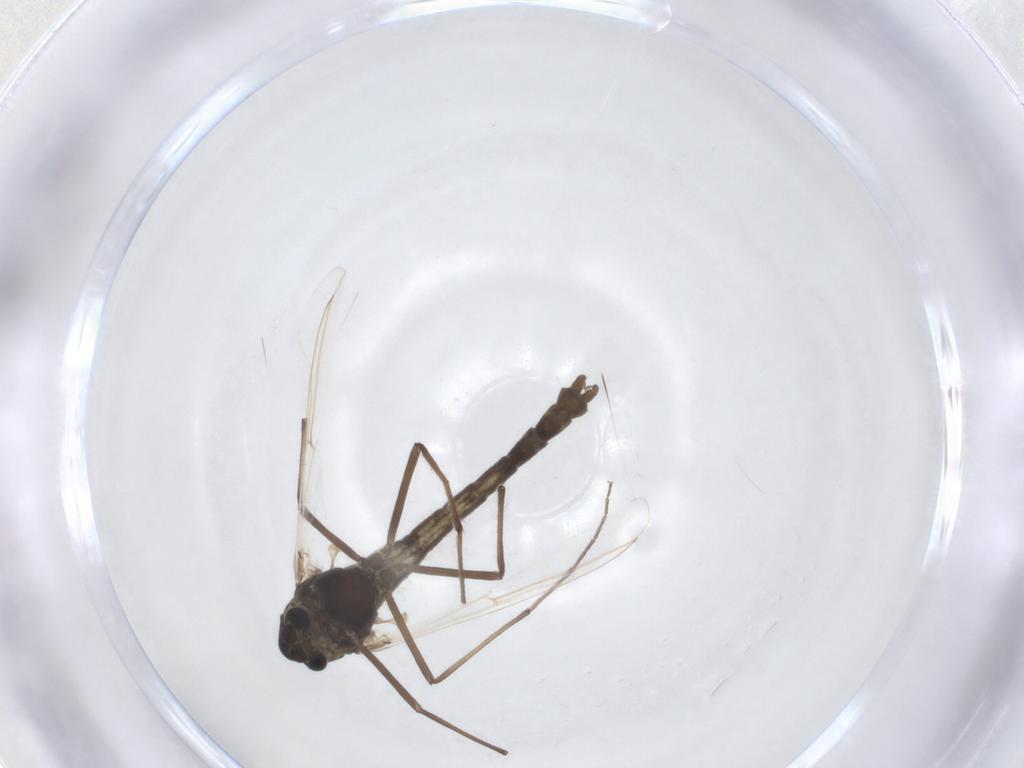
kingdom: Animalia
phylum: Arthropoda
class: Insecta
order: Diptera
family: Chironomidae
